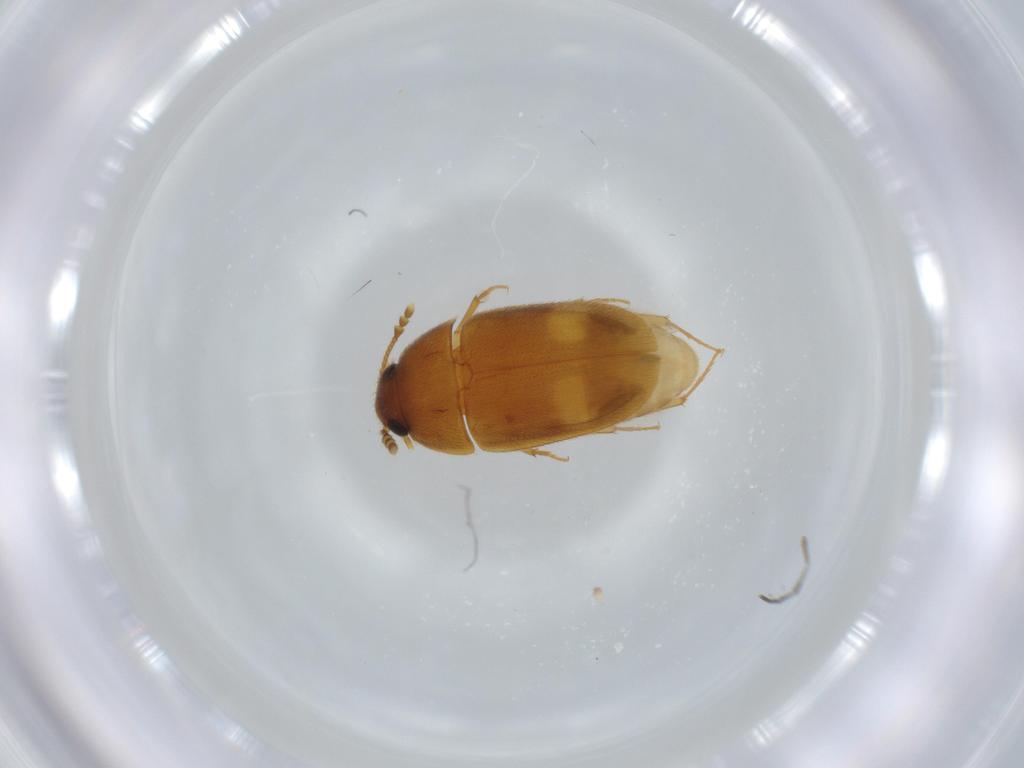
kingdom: Animalia
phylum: Arthropoda
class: Insecta
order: Coleoptera
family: Mycetophagidae
